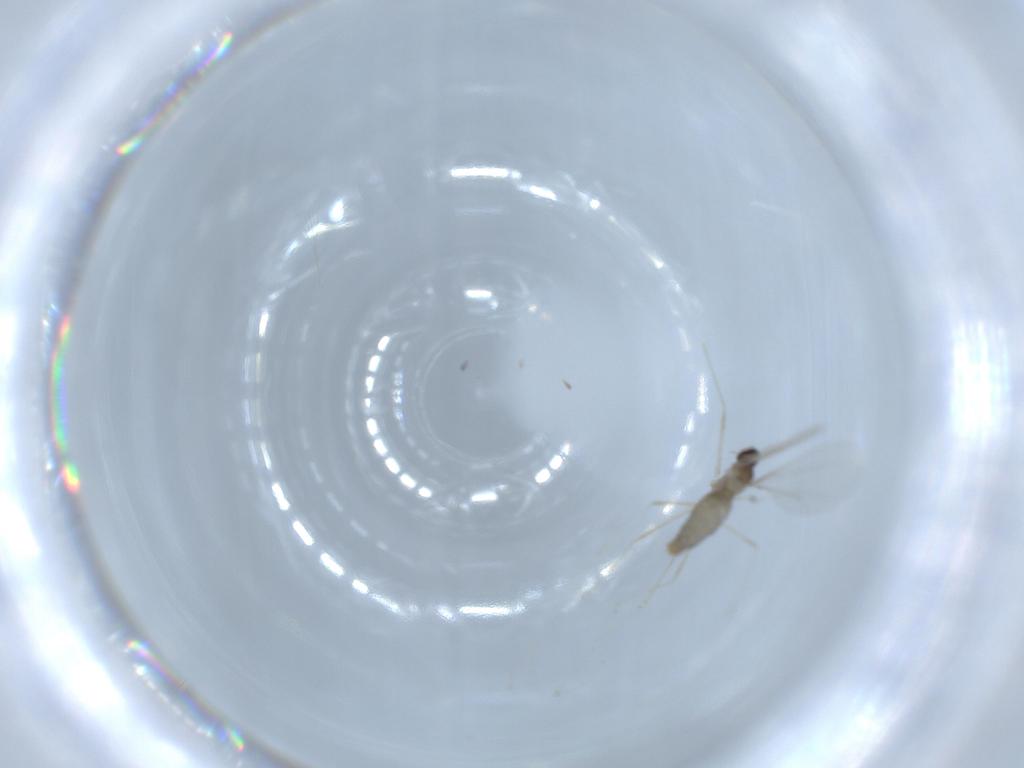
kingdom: Animalia
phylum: Arthropoda
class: Insecta
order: Diptera
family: Cecidomyiidae
